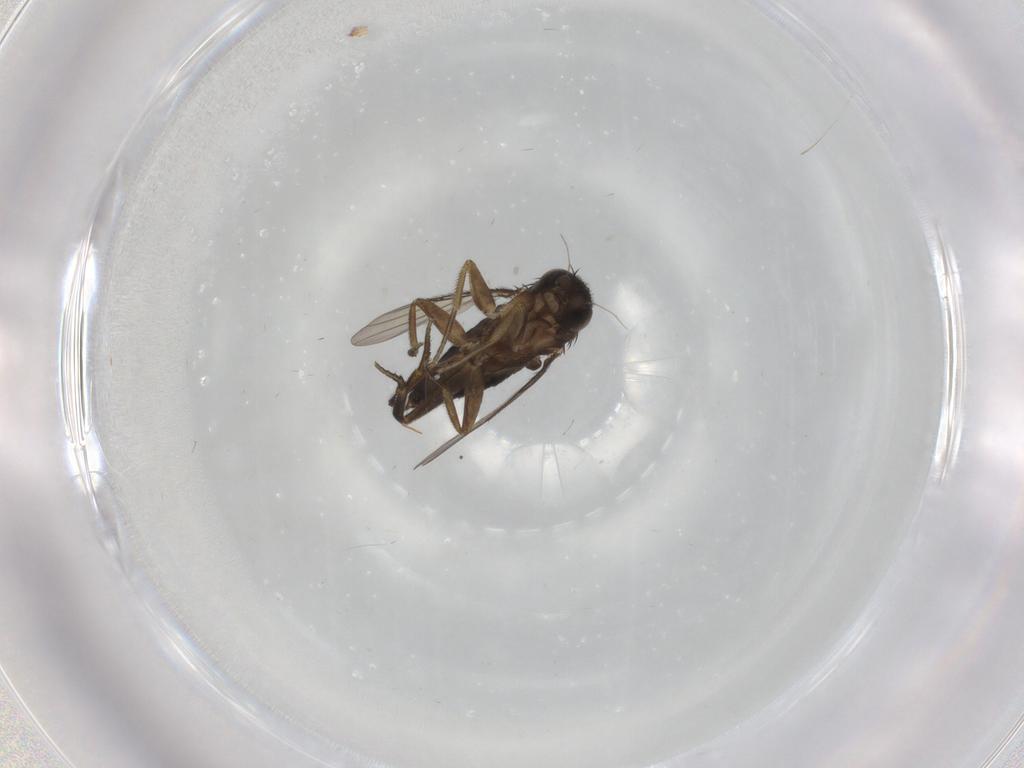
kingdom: Animalia
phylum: Arthropoda
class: Insecta
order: Diptera
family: Phoridae
